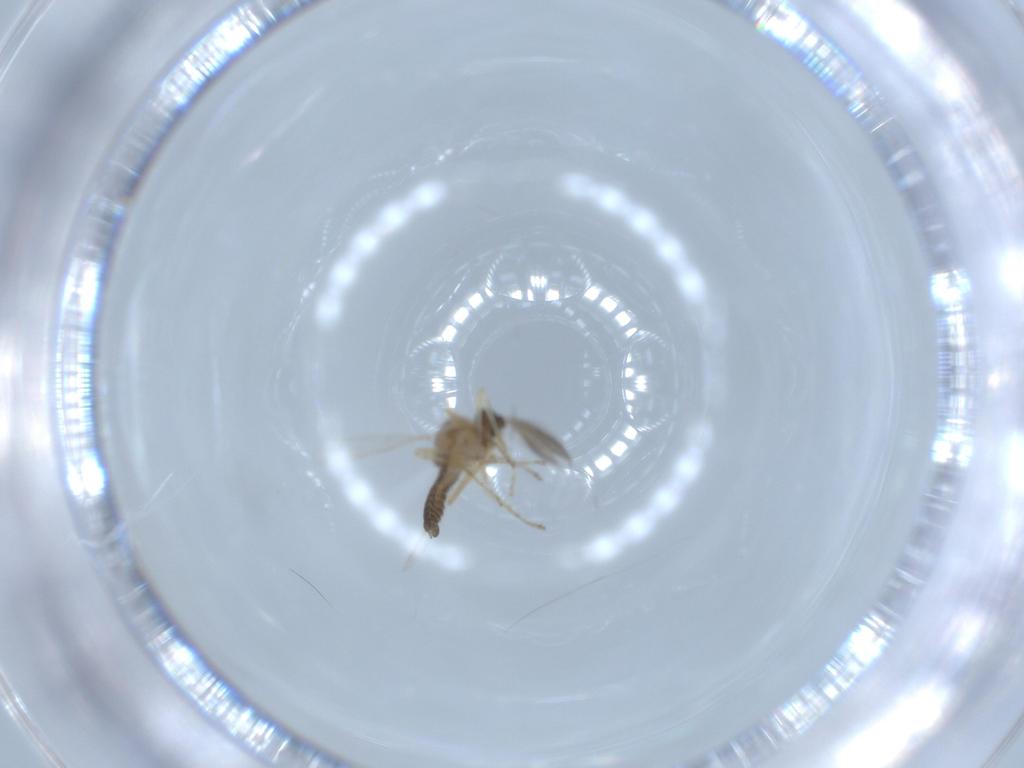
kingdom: Animalia
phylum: Arthropoda
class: Insecta
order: Diptera
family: Ceratopogonidae
